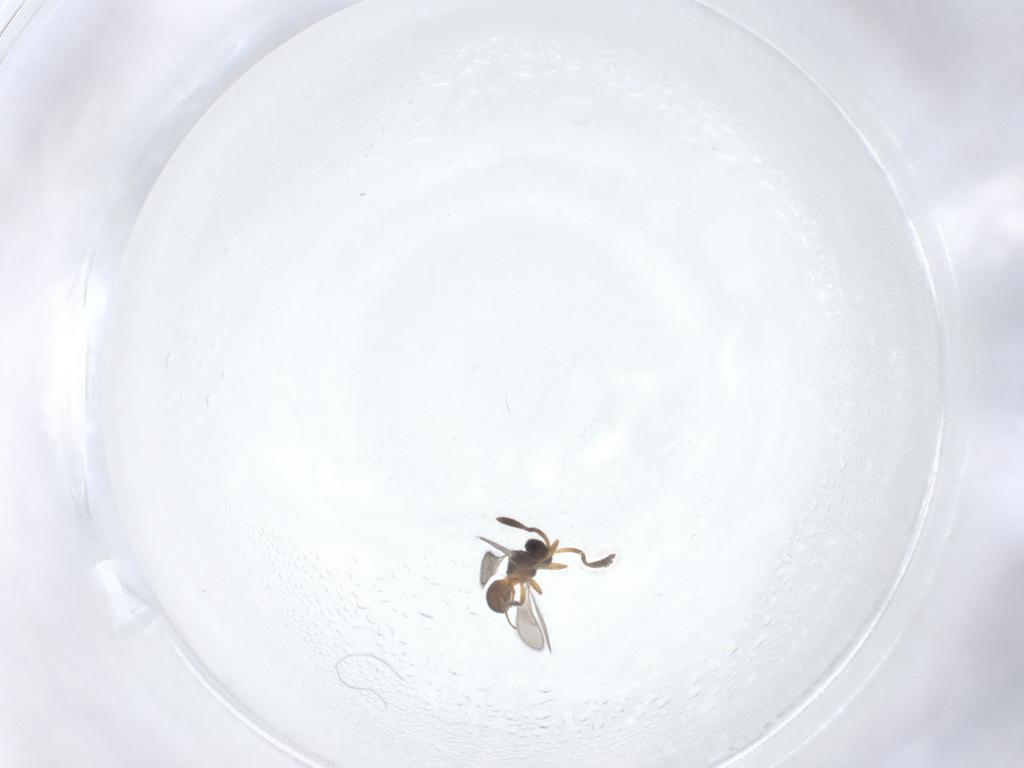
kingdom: Animalia
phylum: Arthropoda
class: Insecta
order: Hymenoptera
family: Scelionidae
